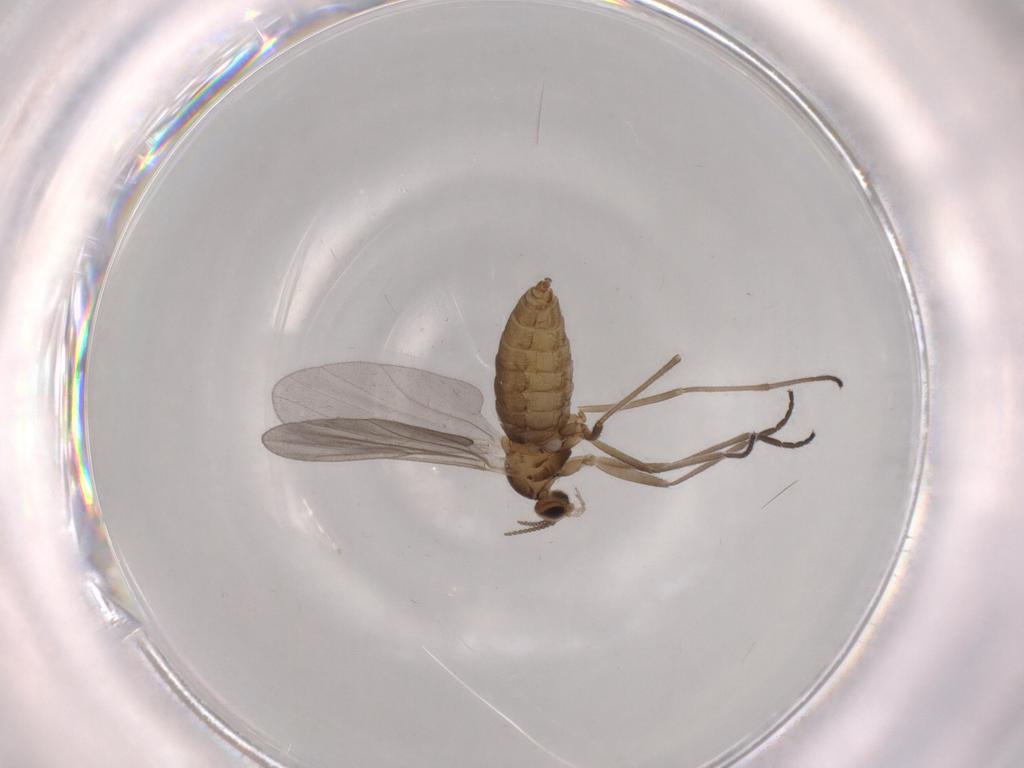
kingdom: Animalia
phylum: Arthropoda
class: Insecta
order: Diptera
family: Cecidomyiidae
